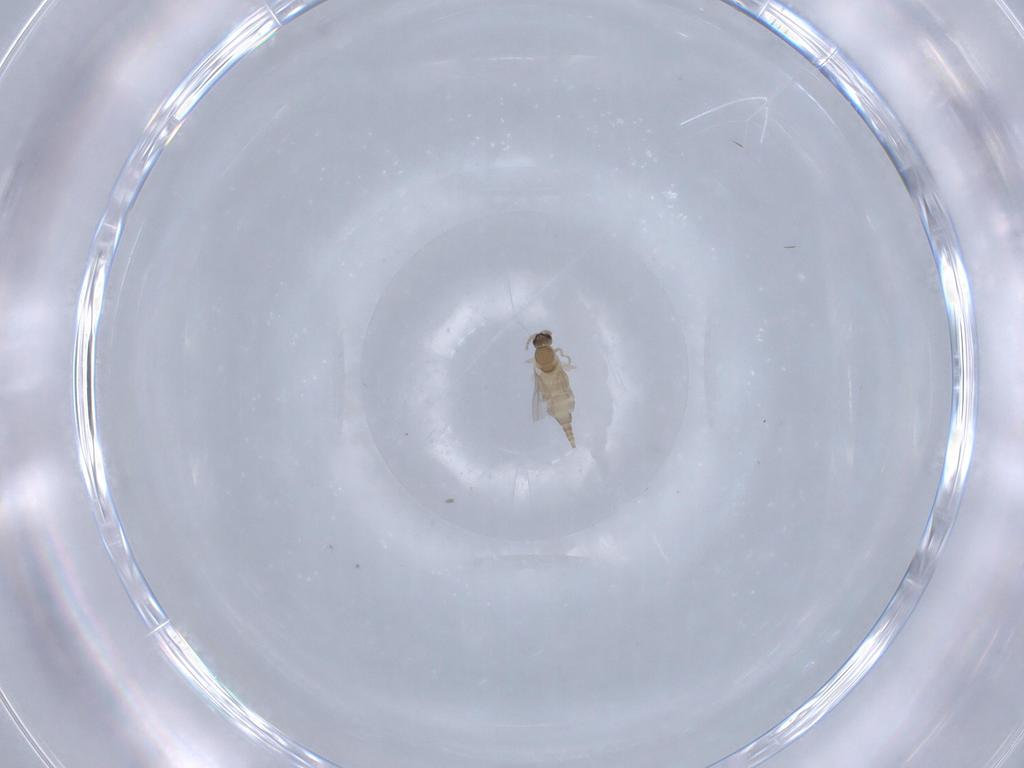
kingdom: Animalia
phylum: Arthropoda
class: Insecta
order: Diptera
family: Cecidomyiidae
